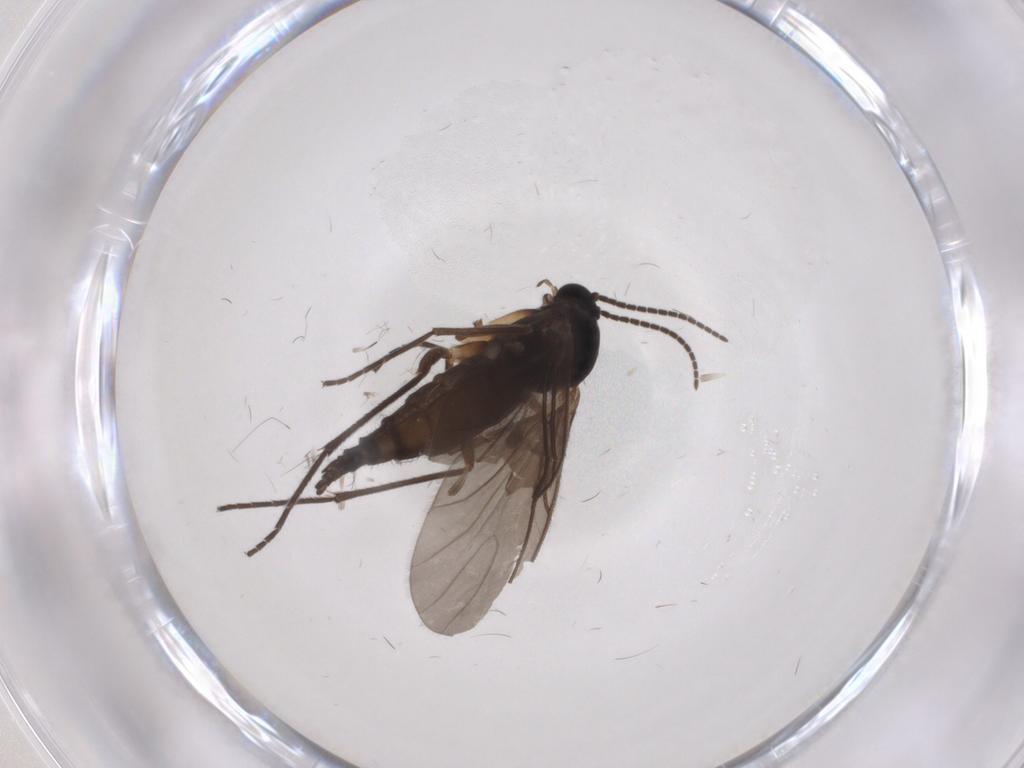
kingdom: Animalia
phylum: Arthropoda
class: Insecta
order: Diptera
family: Sciaridae
